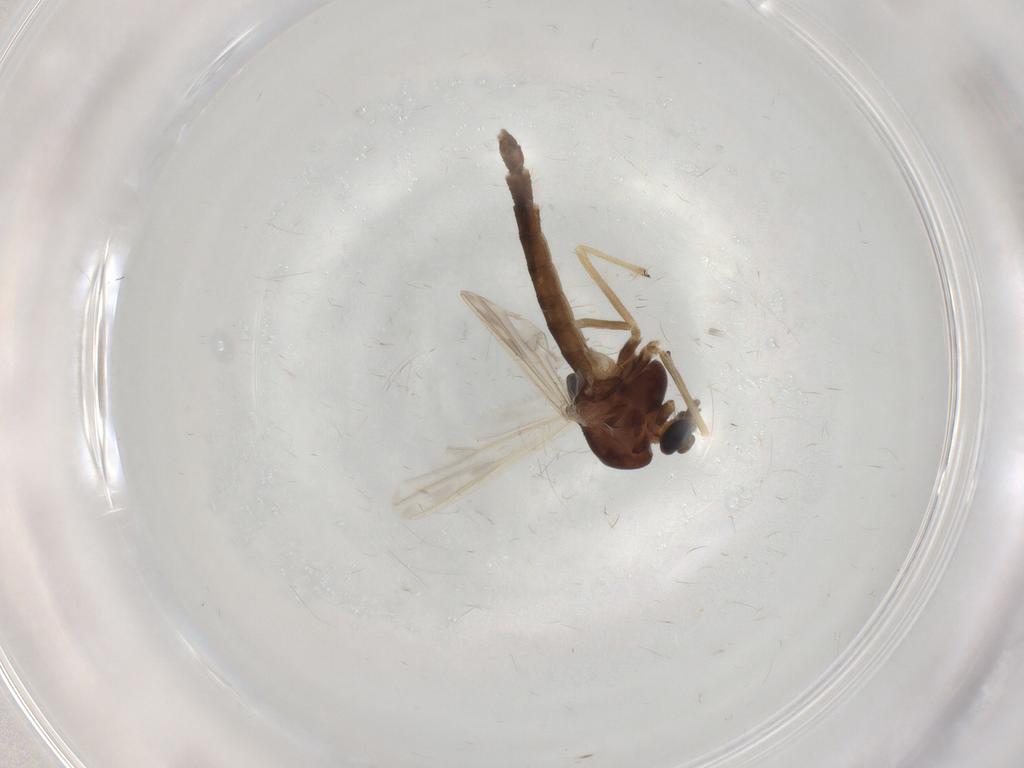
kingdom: Animalia
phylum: Arthropoda
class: Insecta
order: Diptera
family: Chironomidae
